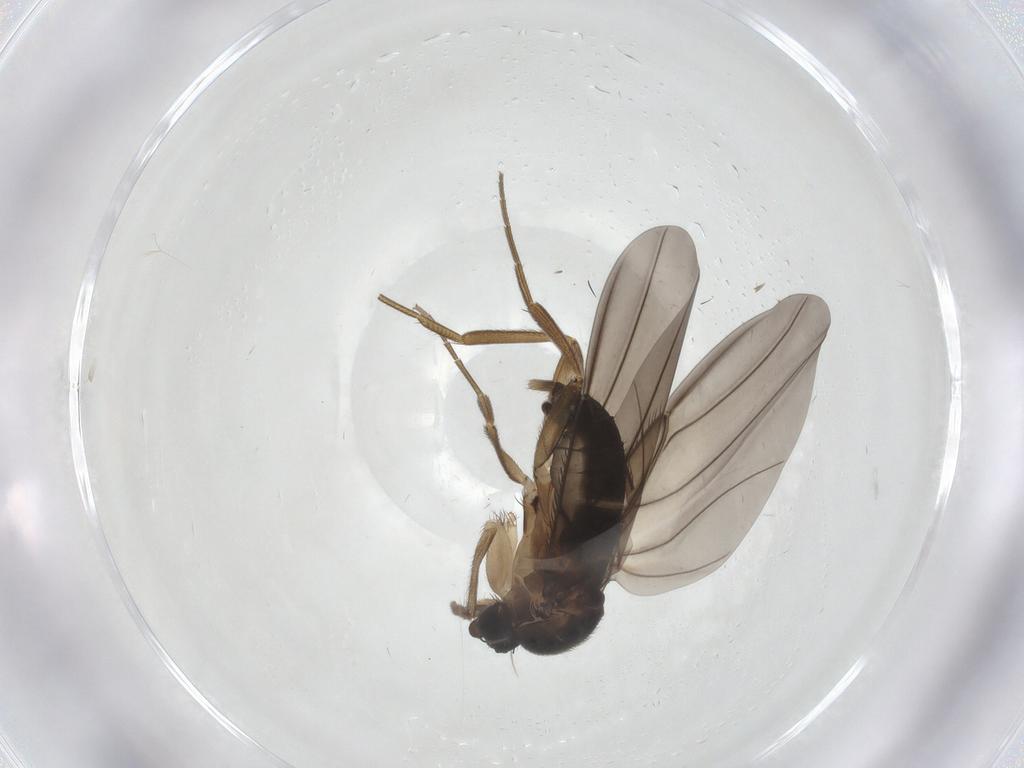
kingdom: Animalia
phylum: Arthropoda
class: Insecta
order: Diptera
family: Phoridae
